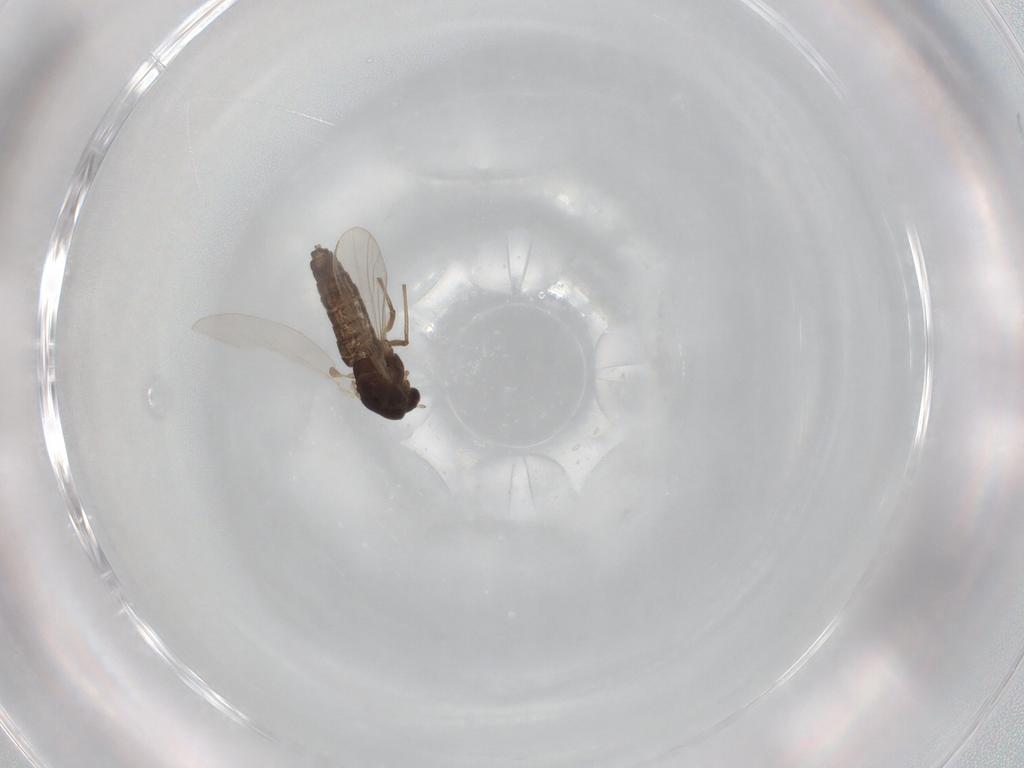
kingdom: Animalia
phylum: Arthropoda
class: Insecta
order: Diptera
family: Chironomidae
